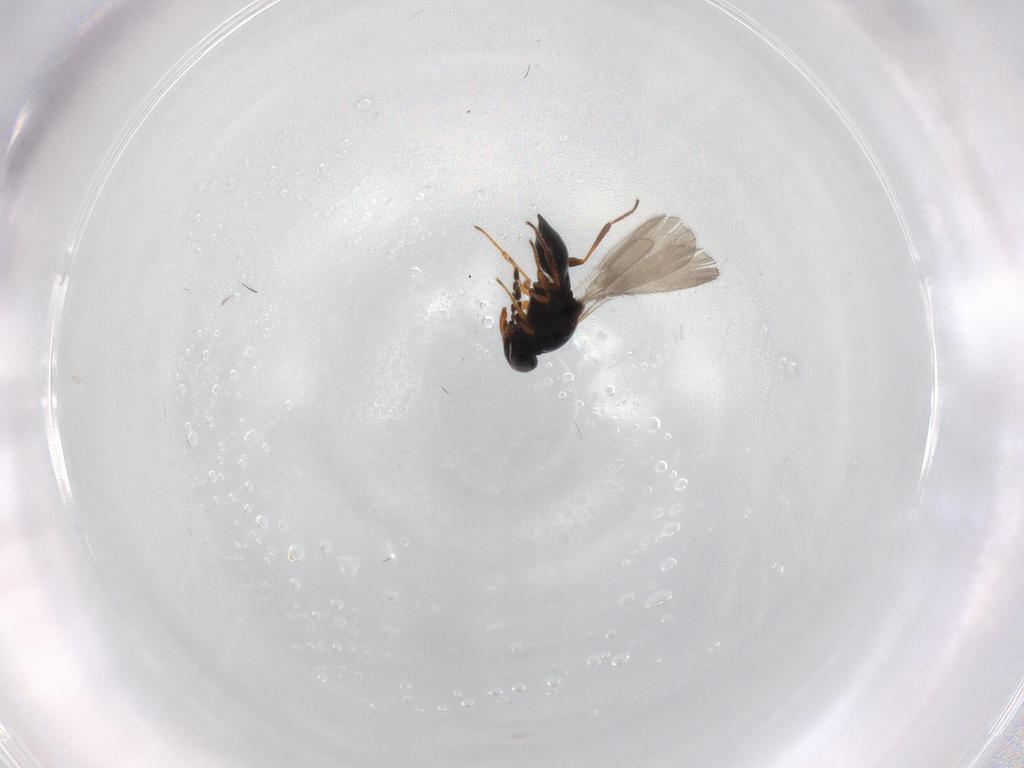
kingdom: Animalia
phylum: Arthropoda
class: Insecta
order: Hymenoptera
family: Platygastridae
